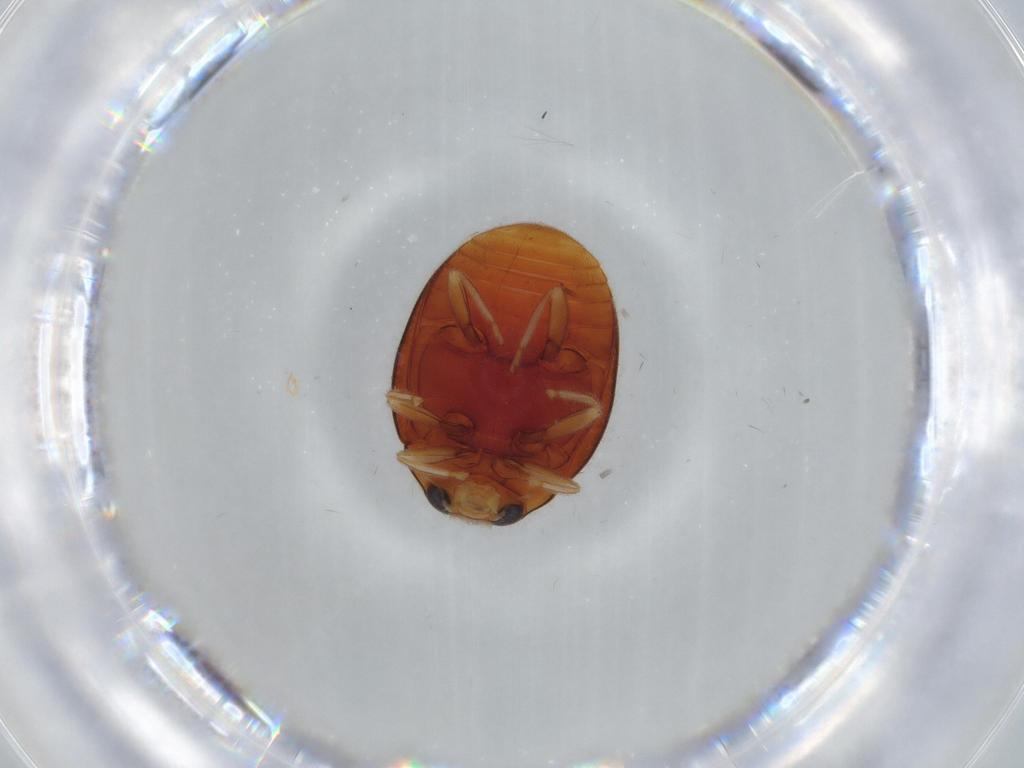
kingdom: Animalia
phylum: Arthropoda
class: Insecta
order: Coleoptera
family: Coccinellidae
